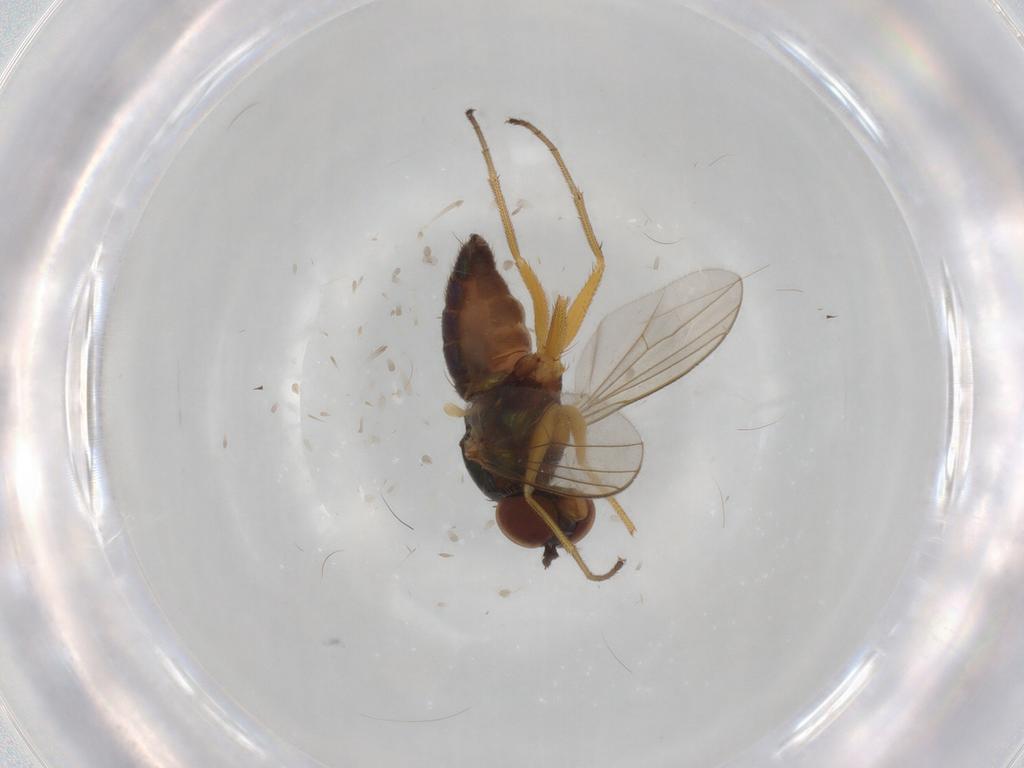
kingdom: Animalia
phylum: Arthropoda
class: Insecta
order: Diptera
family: Ceratopogonidae
